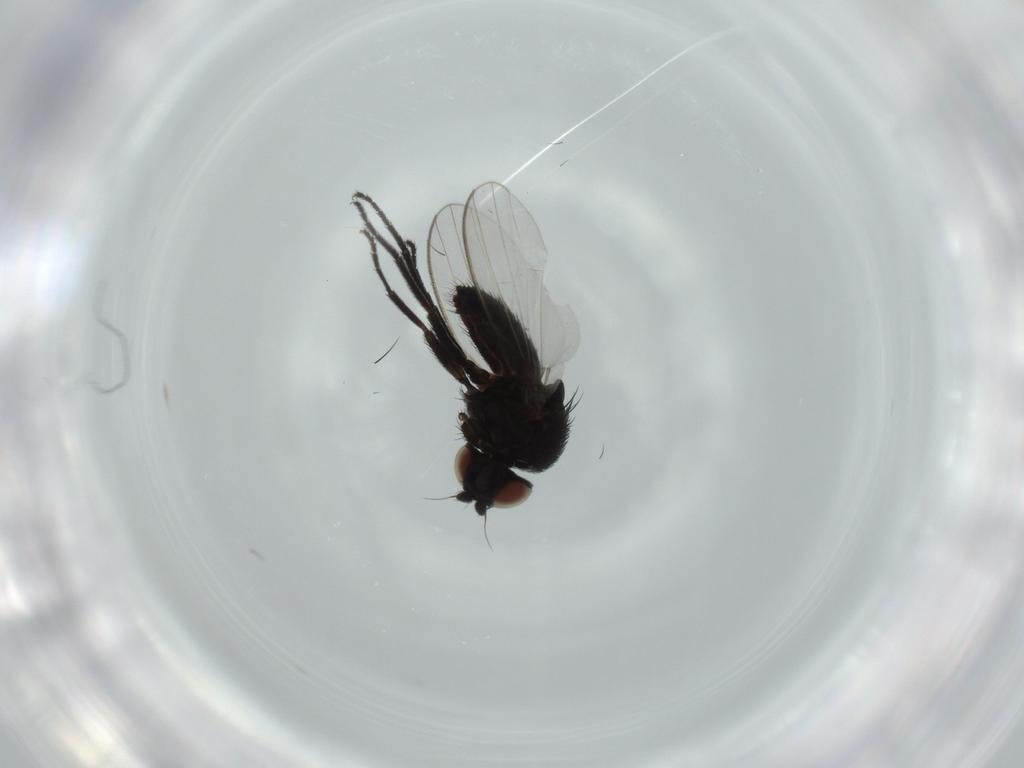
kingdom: Animalia
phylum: Arthropoda
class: Insecta
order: Diptera
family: Milichiidae
